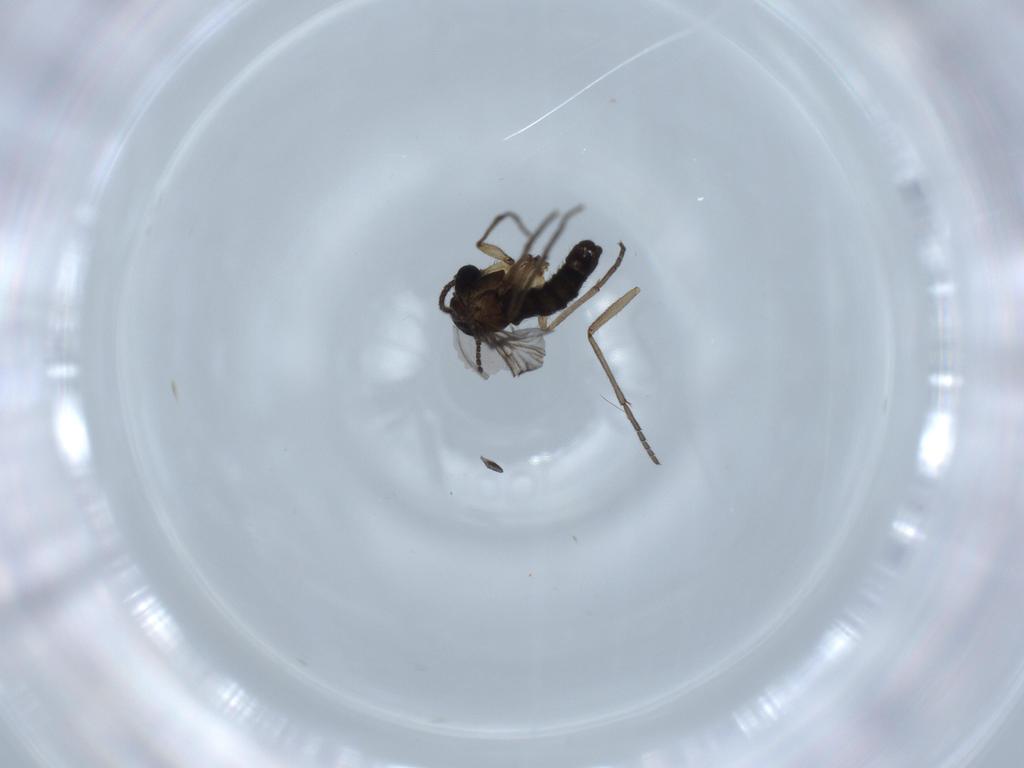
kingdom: Animalia
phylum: Arthropoda
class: Insecta
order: Diptera
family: Sciaridae
